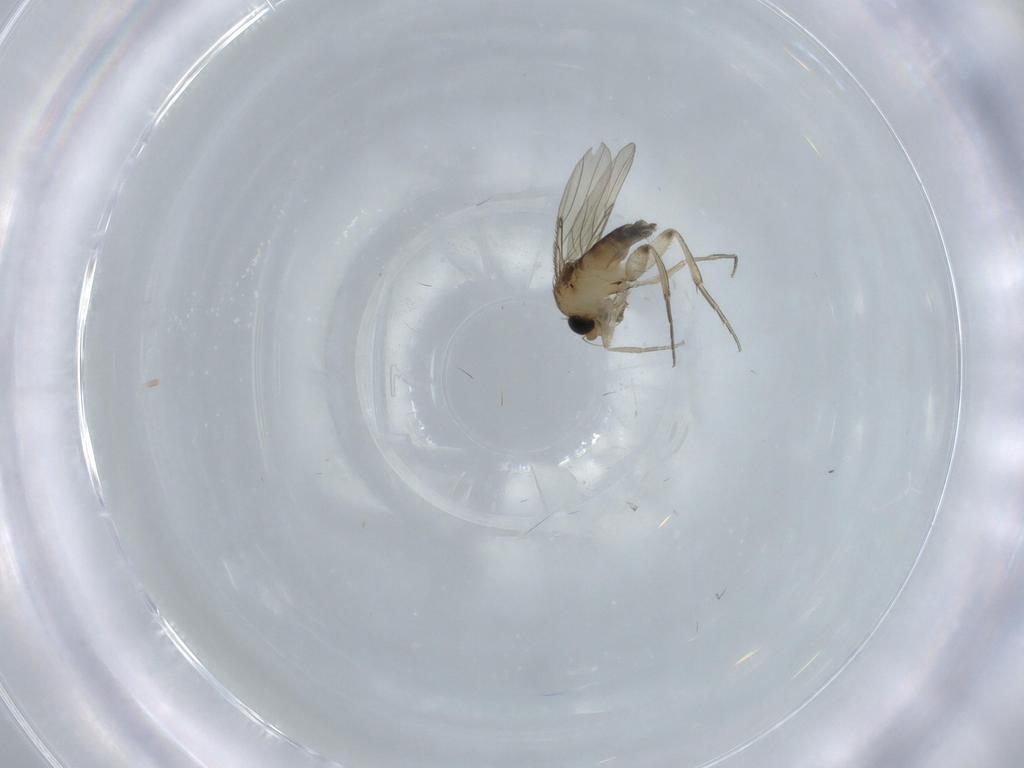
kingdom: Animalia
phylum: Arthropoda
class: Insecta
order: Diptera
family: Phoridae
